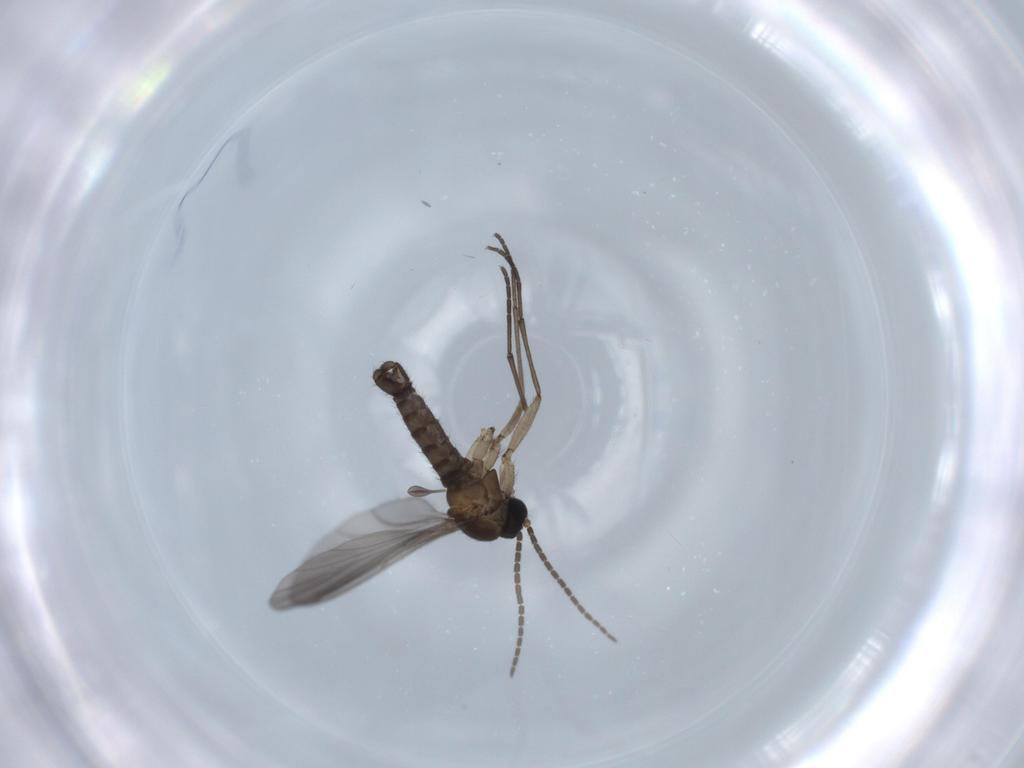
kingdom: Animalia
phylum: Arthropoda
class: Insecta
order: Diptera
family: Sciaridae
